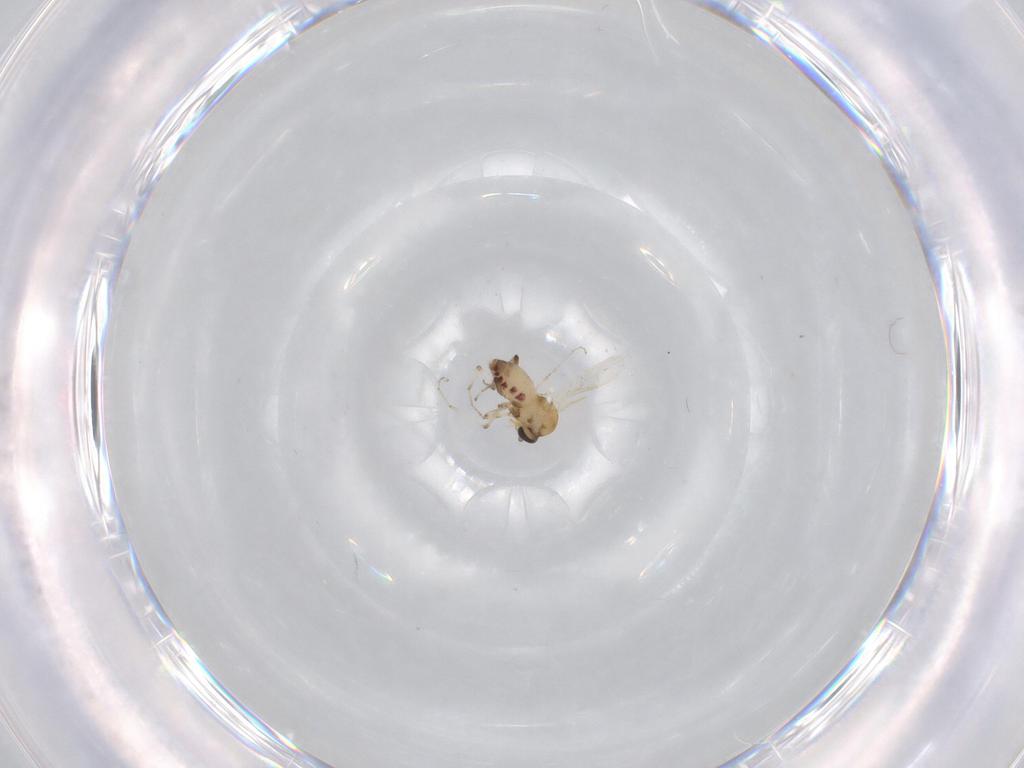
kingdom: Animalia
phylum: Arthropoda
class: Insecta
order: Diptera
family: Ceratopogonidae
